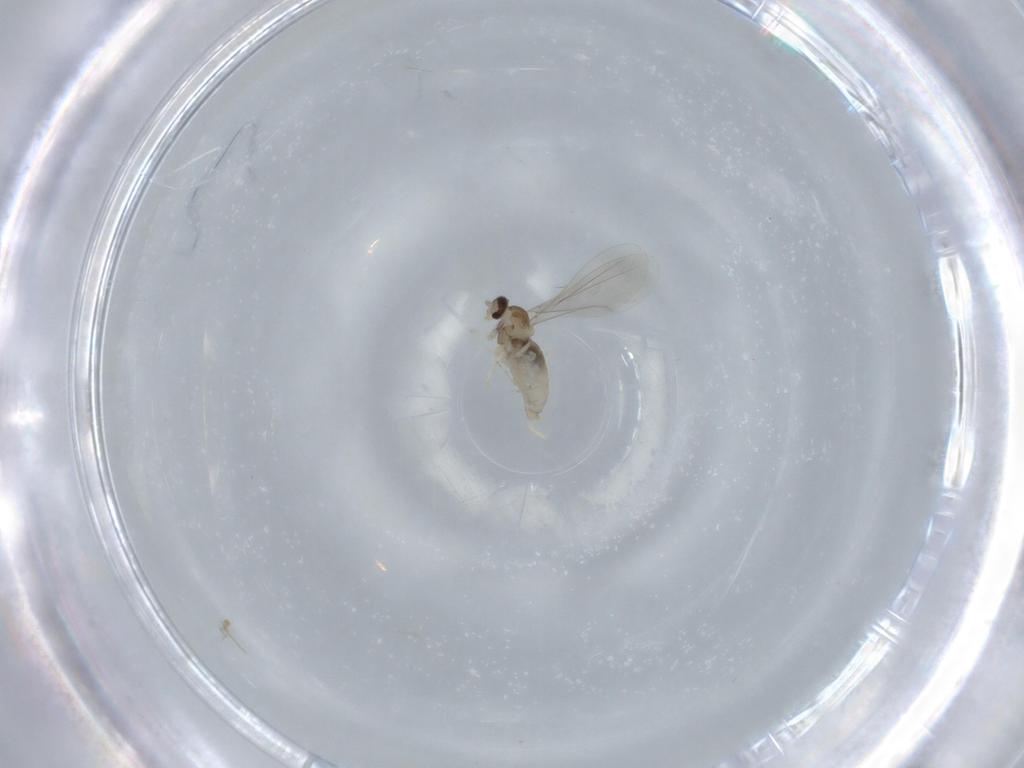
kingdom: Animalia
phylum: Arthropoda
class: Insecta
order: Diptera
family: Cecidomyiidae
